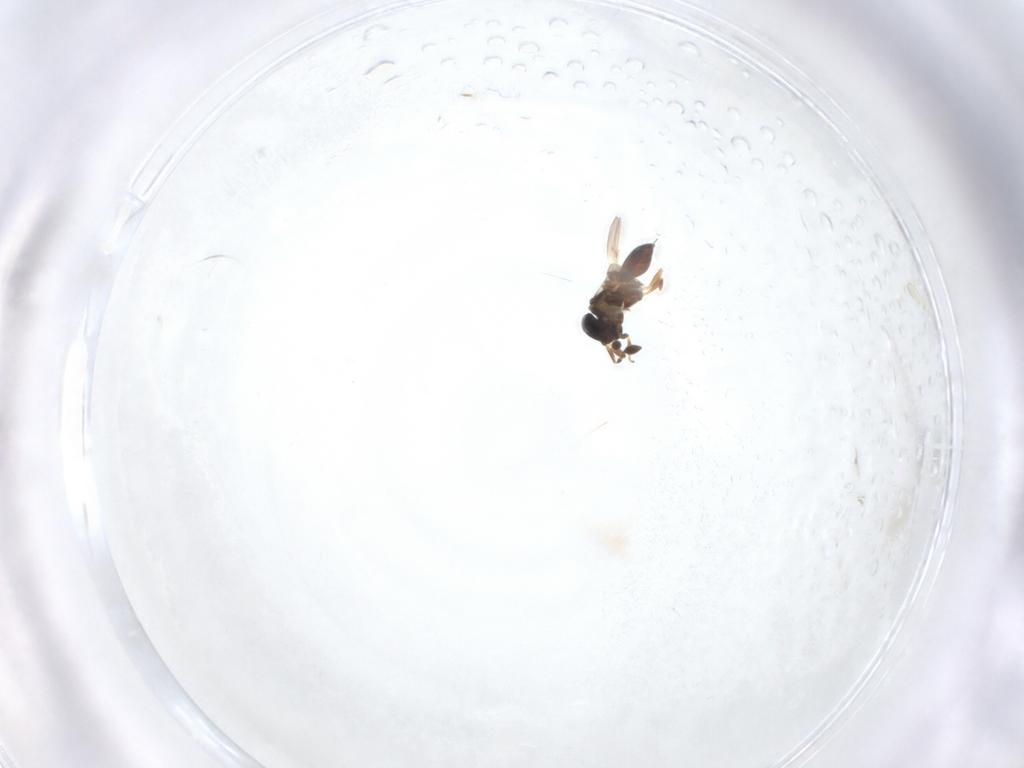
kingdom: Animalia
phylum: Arthropoda
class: Insecta
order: Hymenoptera
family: Scelionidae
